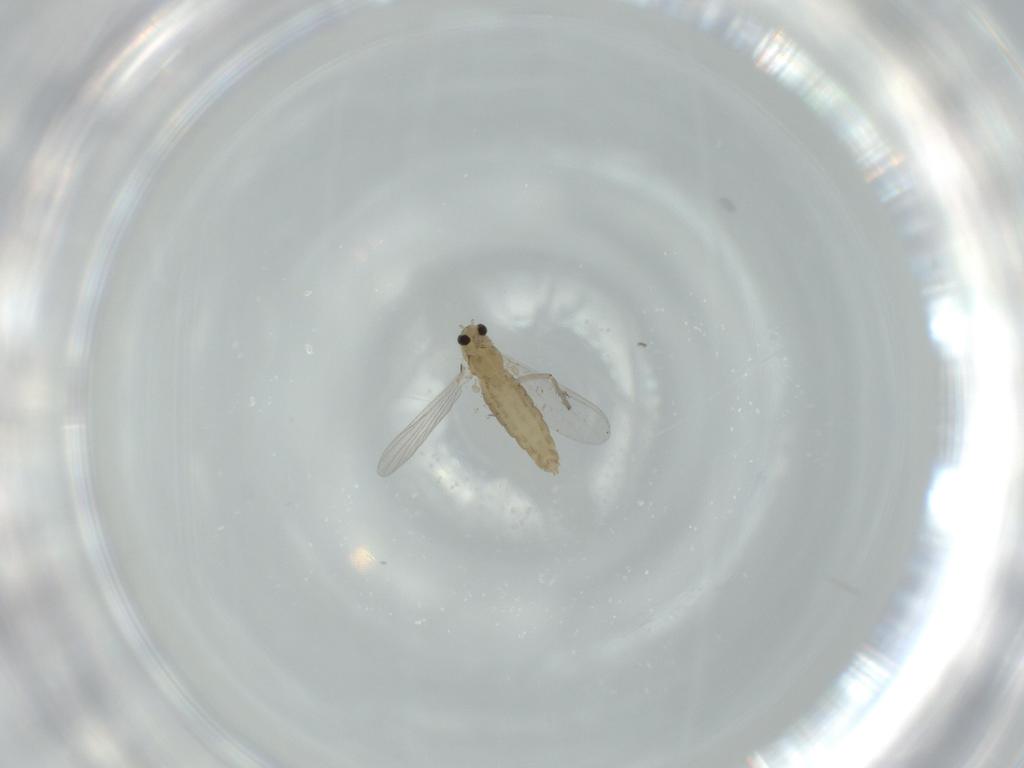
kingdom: Animalia
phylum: Arthropoda
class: Insecta
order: Diptera
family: Chironomidae
